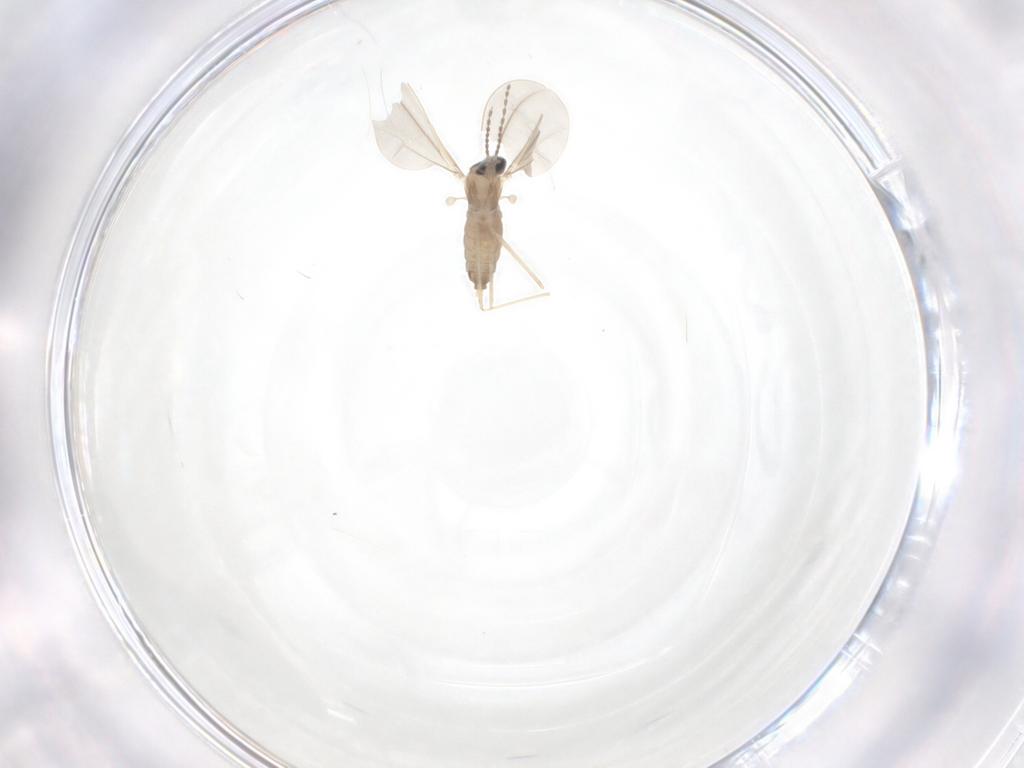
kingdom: Animalia
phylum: Arthropoda
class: Insecta
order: Diptera
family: Cecidomyiidae
